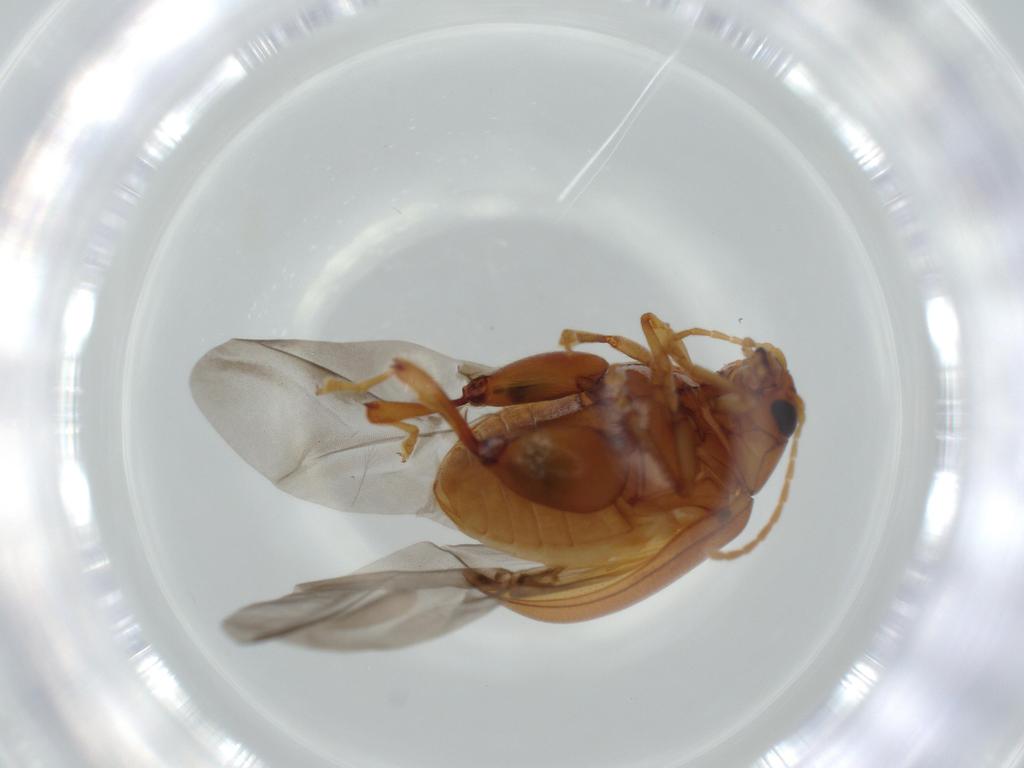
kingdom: Animalia
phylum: Arthropoda
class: Insecta
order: Coleoptera
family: Chrysomelidae
